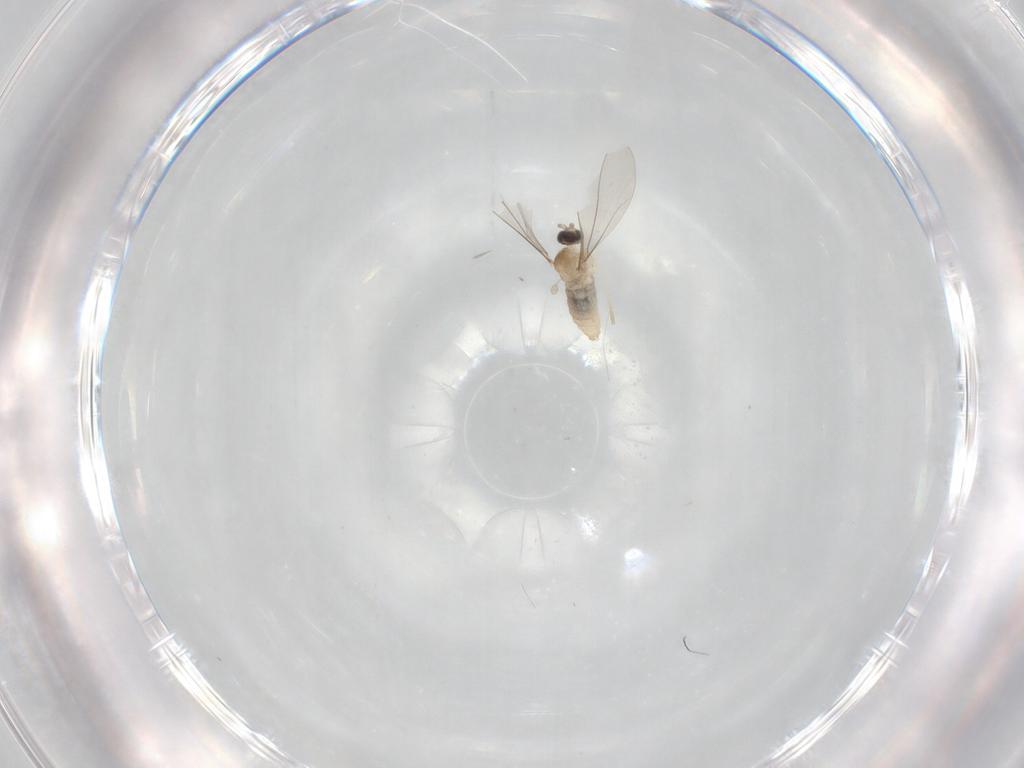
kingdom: Animalia
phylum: Arthropoda
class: Insecta
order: Diptera
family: Cecidomyiidae
